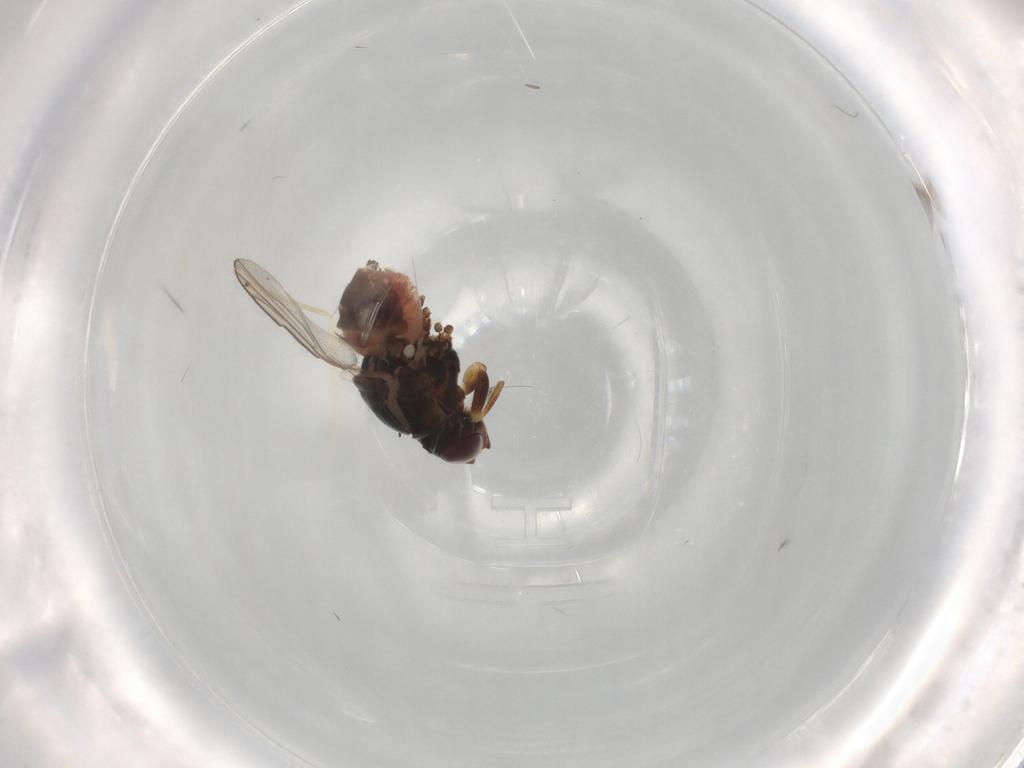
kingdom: Animalia
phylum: Arthropoda
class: Insecta
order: Diptera
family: Chloropidae
